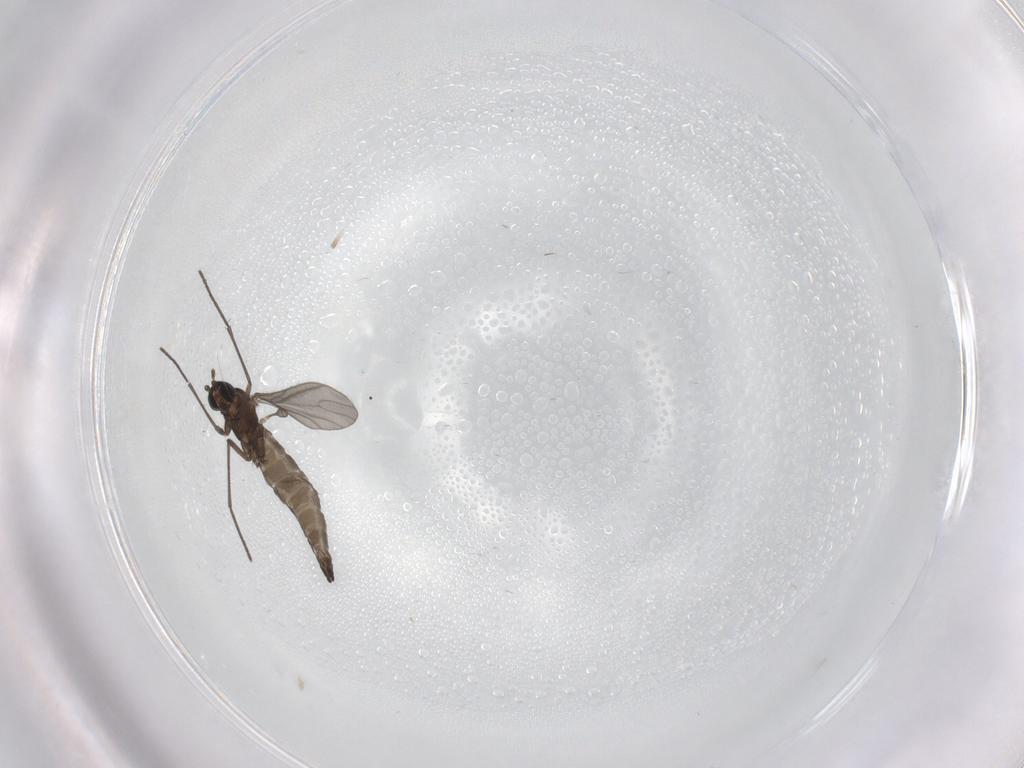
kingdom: Animalia
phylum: Arthropoda
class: Insecta
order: Diptera
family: Sciaridae
